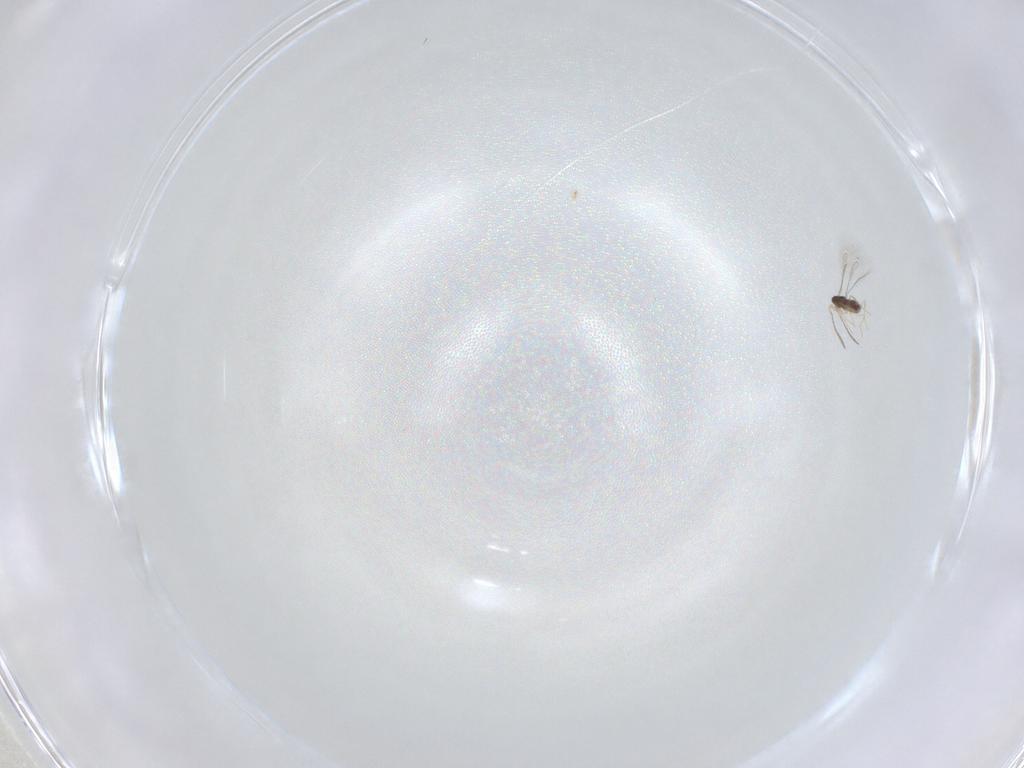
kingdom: Animalia
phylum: Arthropoda
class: Insecta
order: Hymenoptera
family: Mymaridae
